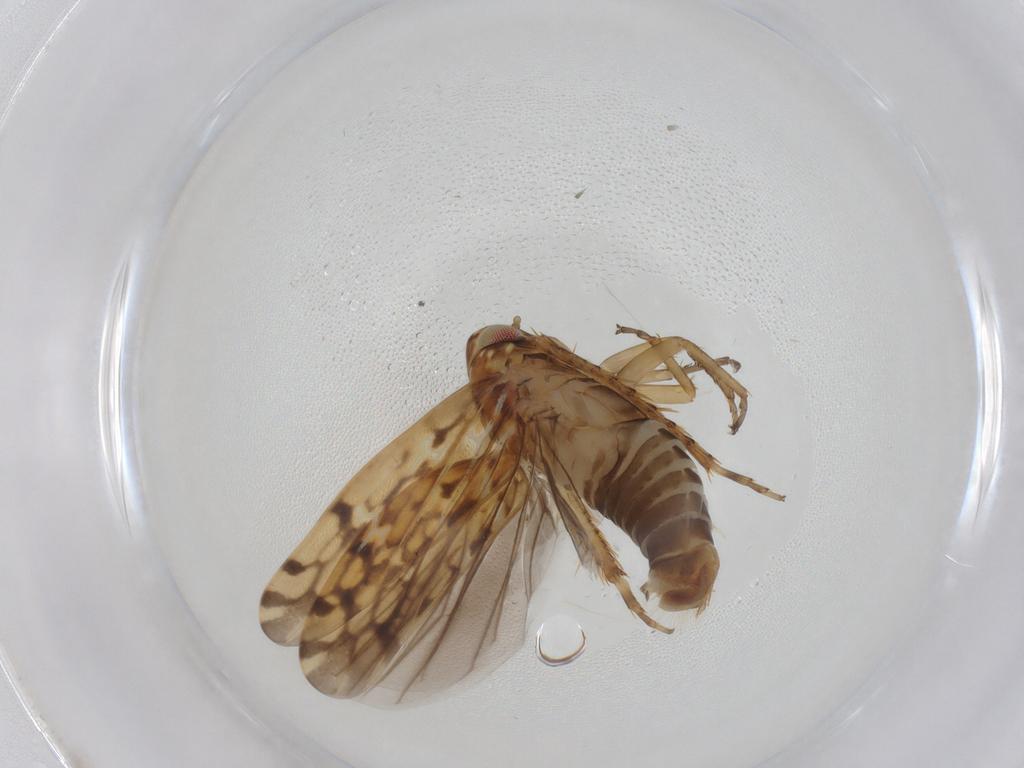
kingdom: Animalia
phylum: Arthropoda
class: Insecta
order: Hemiptera
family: Cicadellidae
